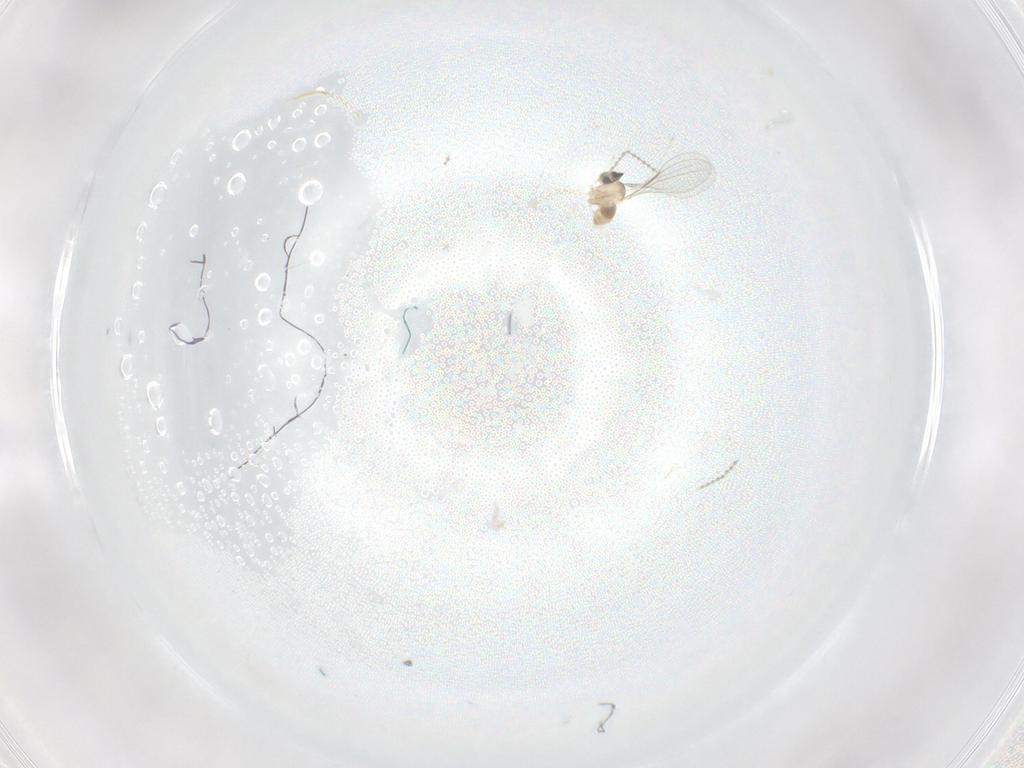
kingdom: Animalia
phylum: Arthropoda
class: Insecta
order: Diptera
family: Cecidomyiidae
